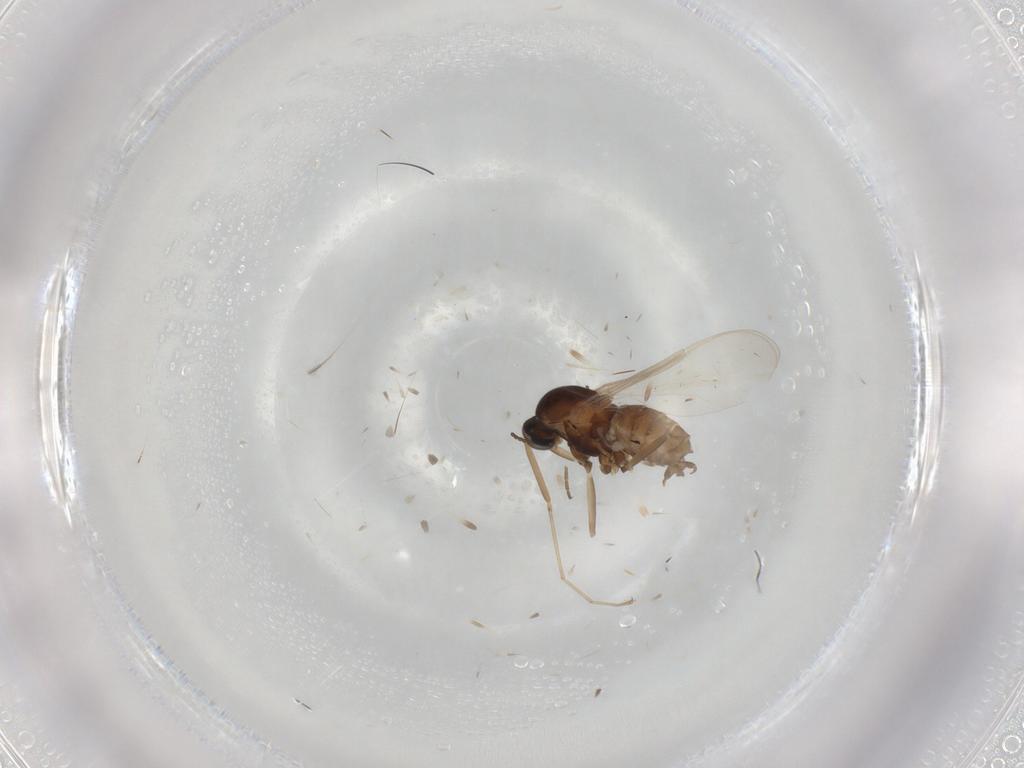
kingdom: Animalia
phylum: Arthropoda
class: Insecta
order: Diptera
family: Cecidomyiidae
